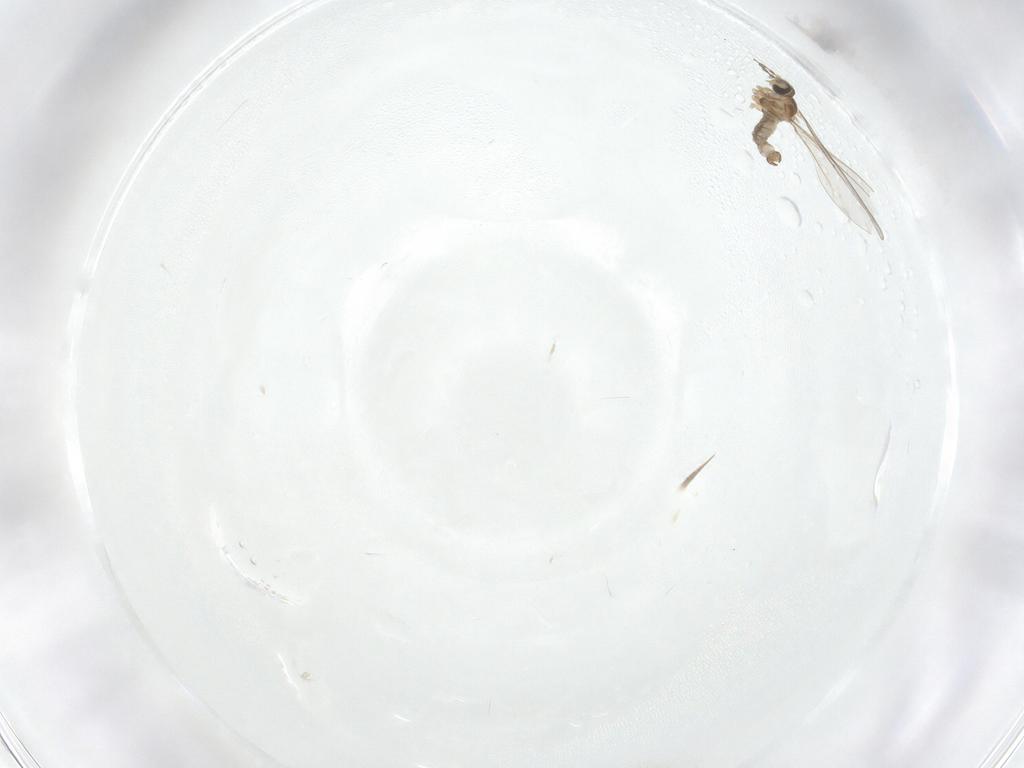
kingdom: Animalia
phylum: Arthropoda
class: Insecta
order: Diptera
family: Cecidomyiidae
